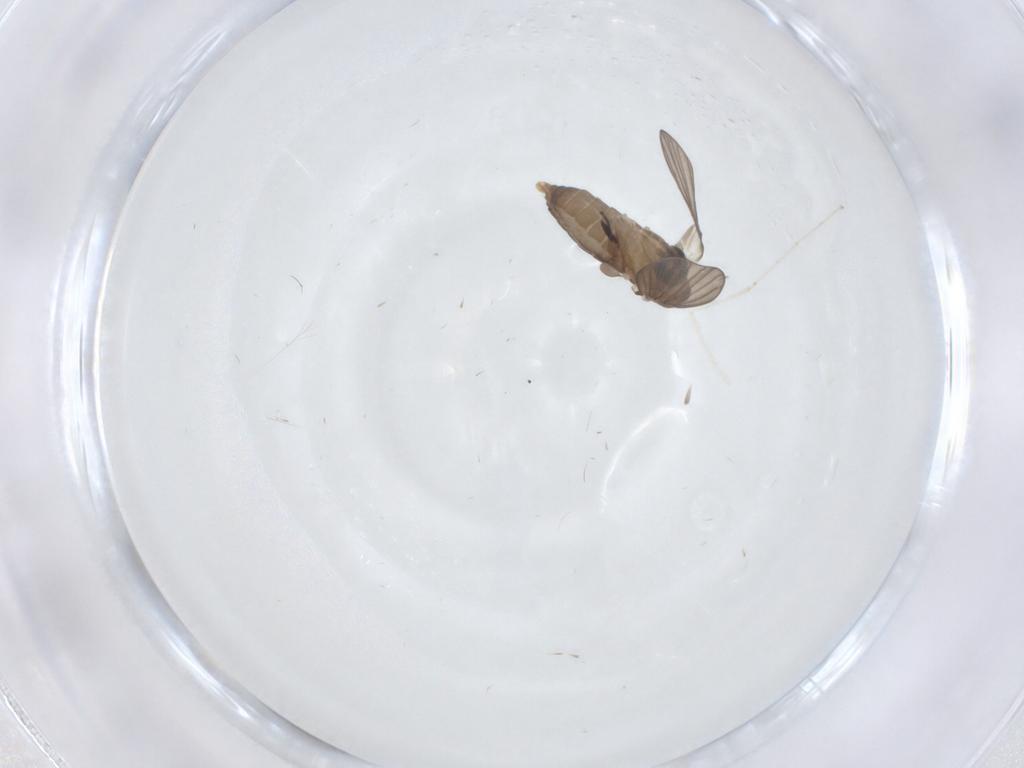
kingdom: Animalia
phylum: Arthropoda
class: Insecta
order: Diptera
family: Cecidomyiidae
